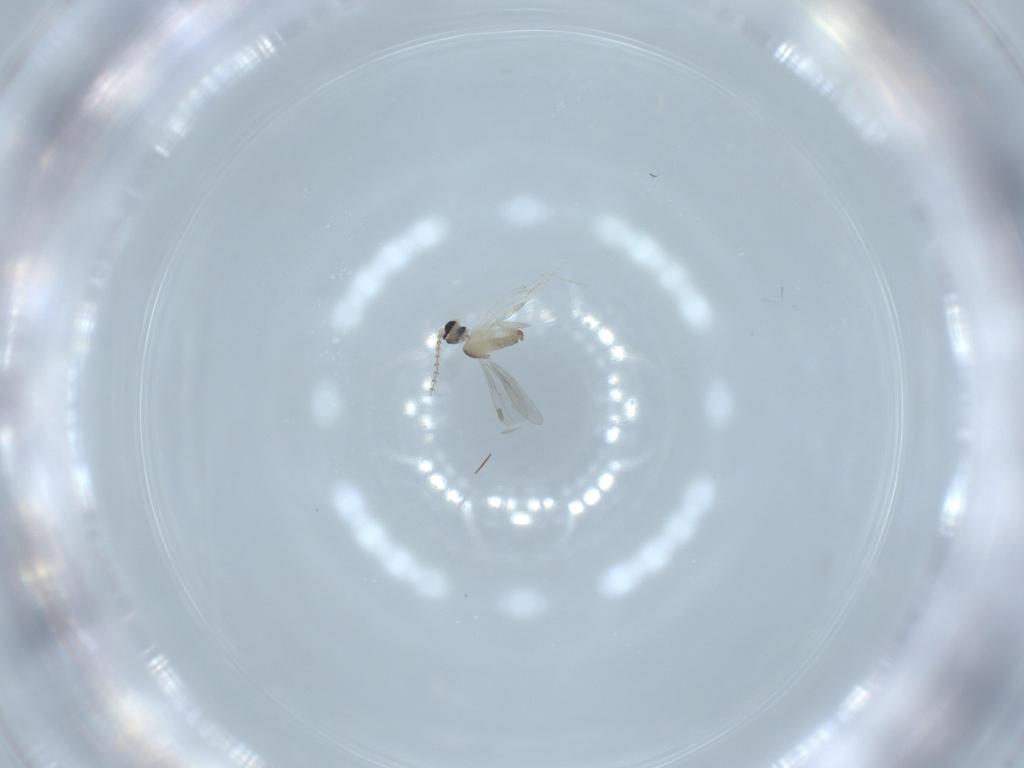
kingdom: Animalia
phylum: Arthropoda
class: Insecta
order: Diptera
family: Cecidomyiidae
